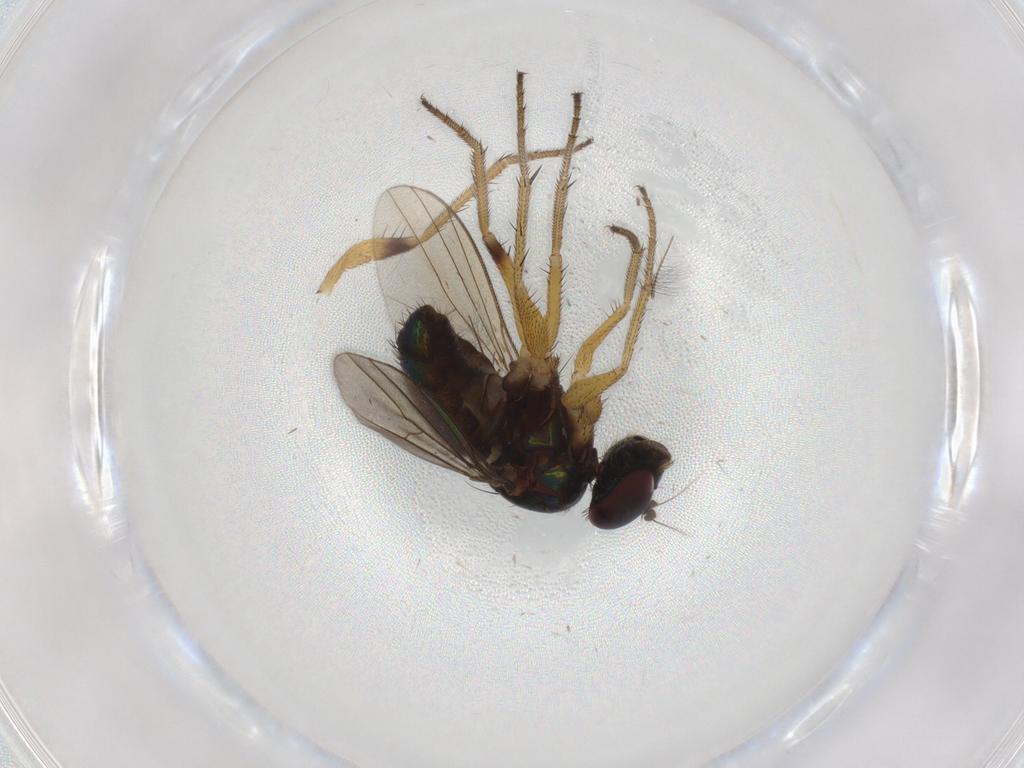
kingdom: Animalia
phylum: Arthropoda
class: Insecta
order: Diptera
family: Dolichopodidae
